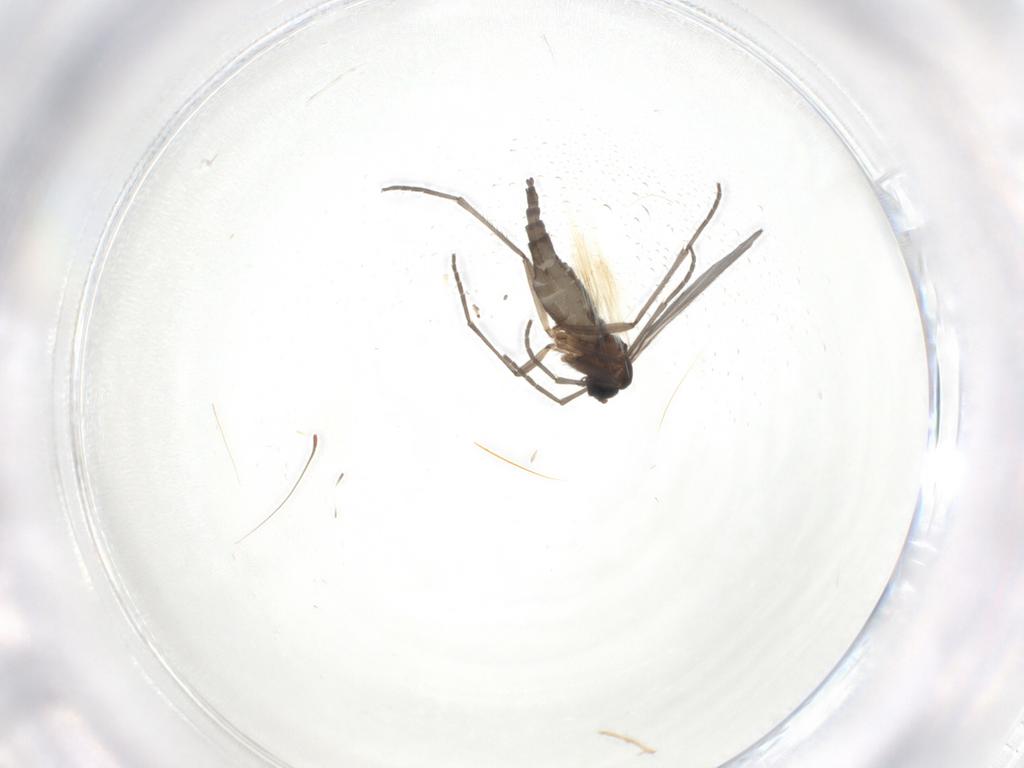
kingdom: Animalia
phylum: Arthropoda
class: Insecta
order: Diptera
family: Sciaridae
